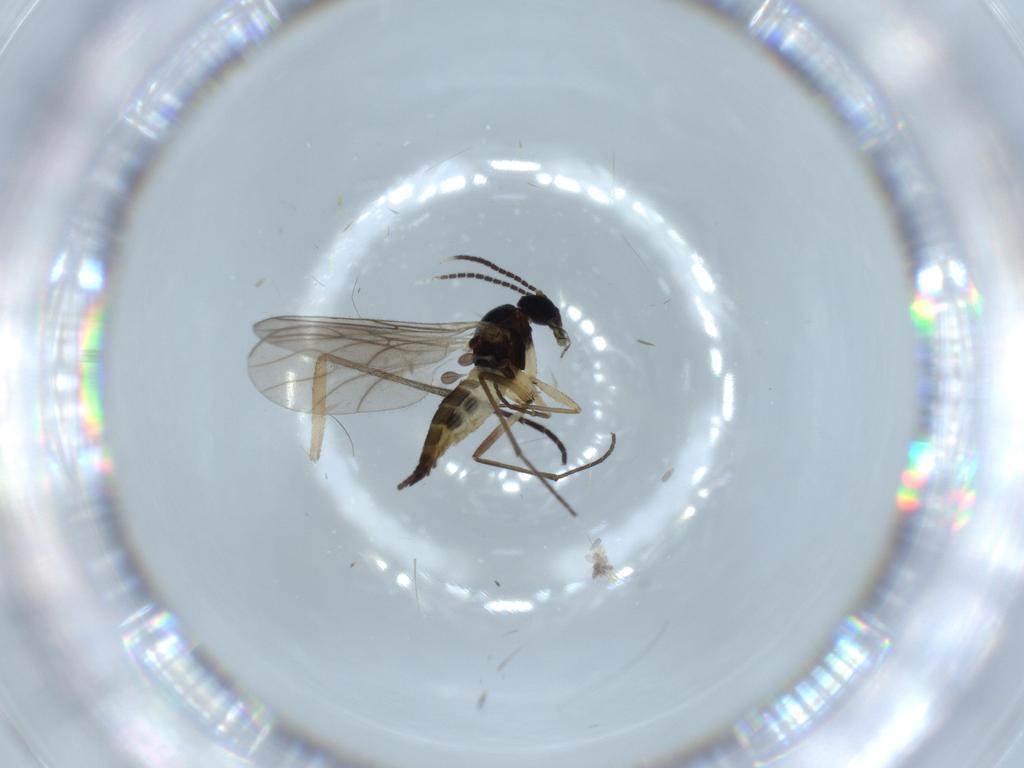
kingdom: Animalia
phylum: Arthropoda
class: Insecta
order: Diptera
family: Sciaridae
